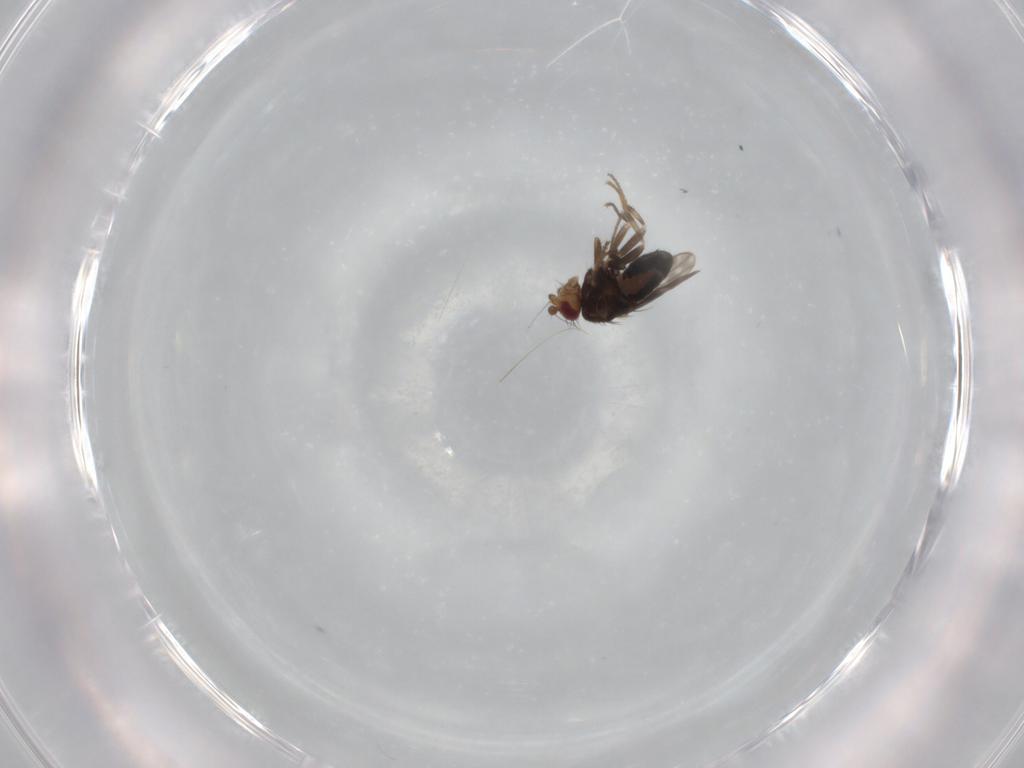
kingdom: Animalia
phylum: Arthropoda
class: Insecta
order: Diptera
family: Sphaeroceridae
